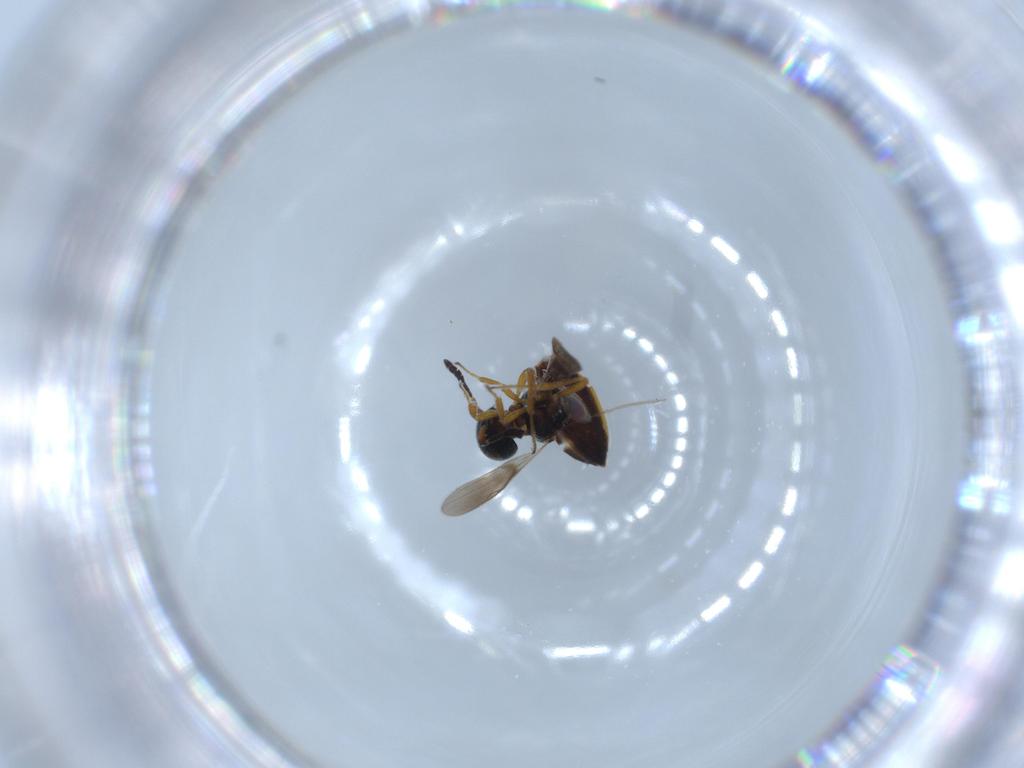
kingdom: Animalia
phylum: Arthropoda
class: Insecta
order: Hymenoptera
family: Scelionidae
